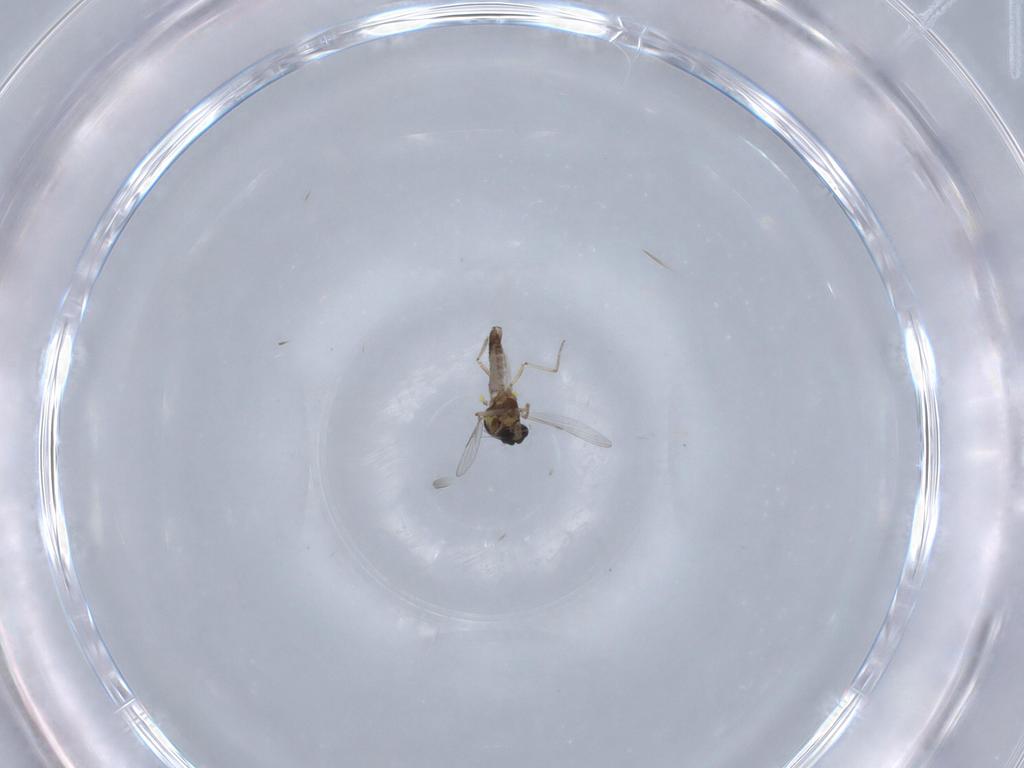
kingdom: Animalia
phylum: Arthropoda
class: Insecta
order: Diptera
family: Ceratopogonidae
